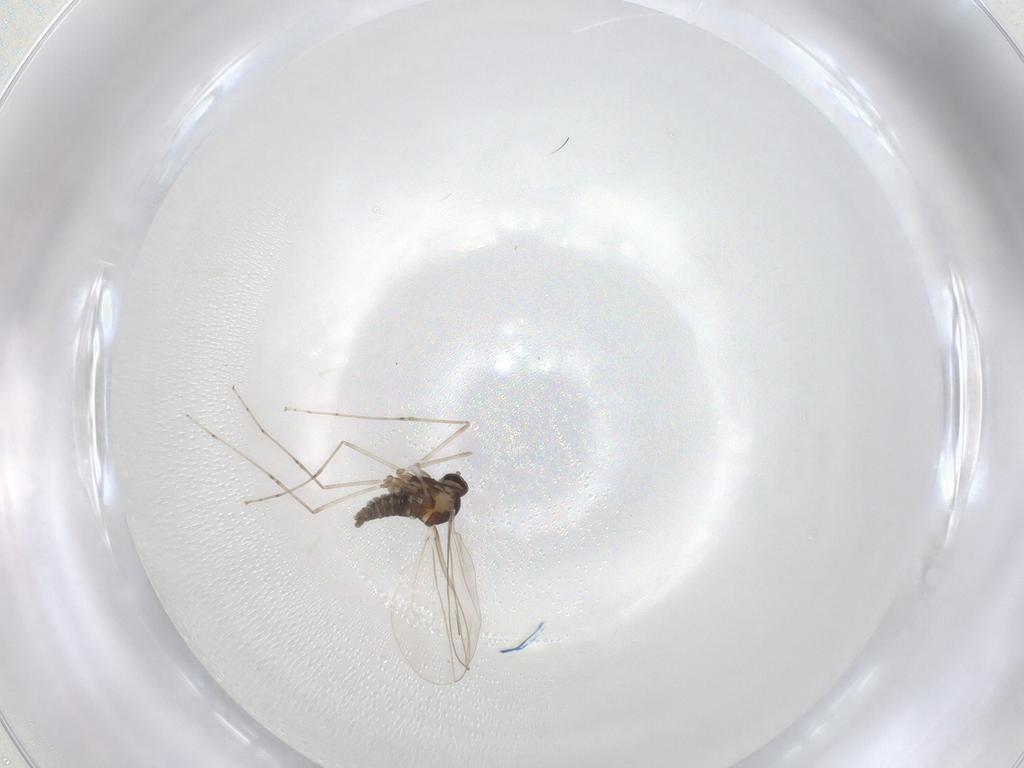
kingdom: Animalia
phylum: Arthropoda
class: Insecta
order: Diptera
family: Cecidomyiidae
